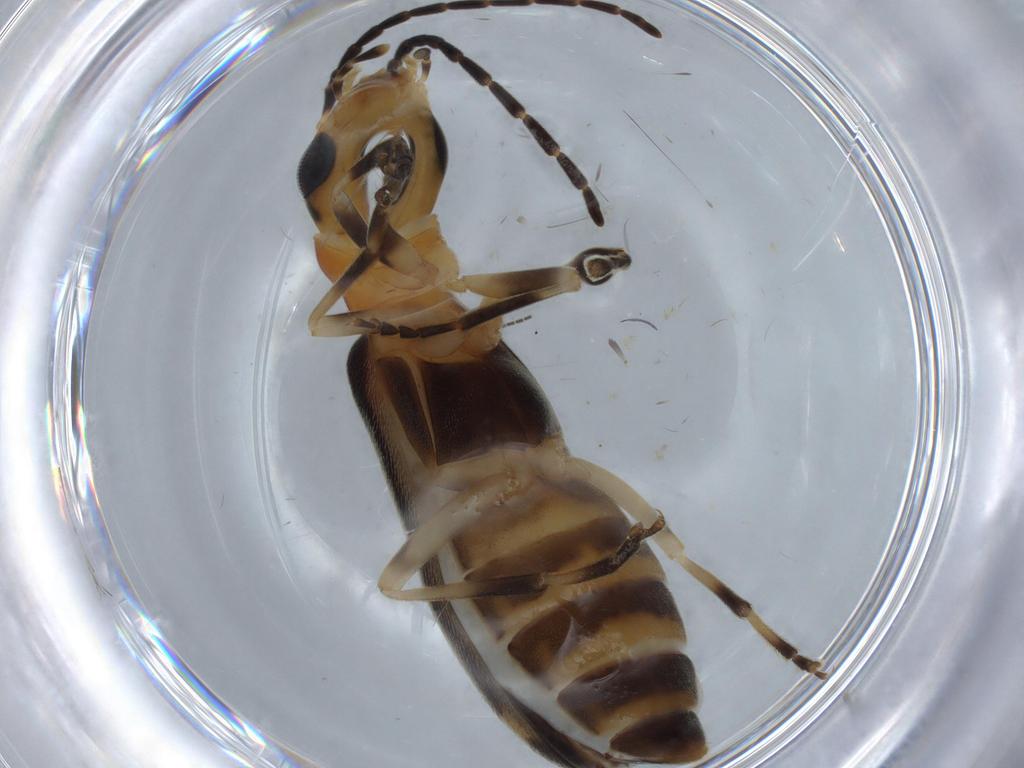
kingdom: Animalia
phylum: Arthropoda
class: Insecta
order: Coleoptera
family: Oedemeridae
